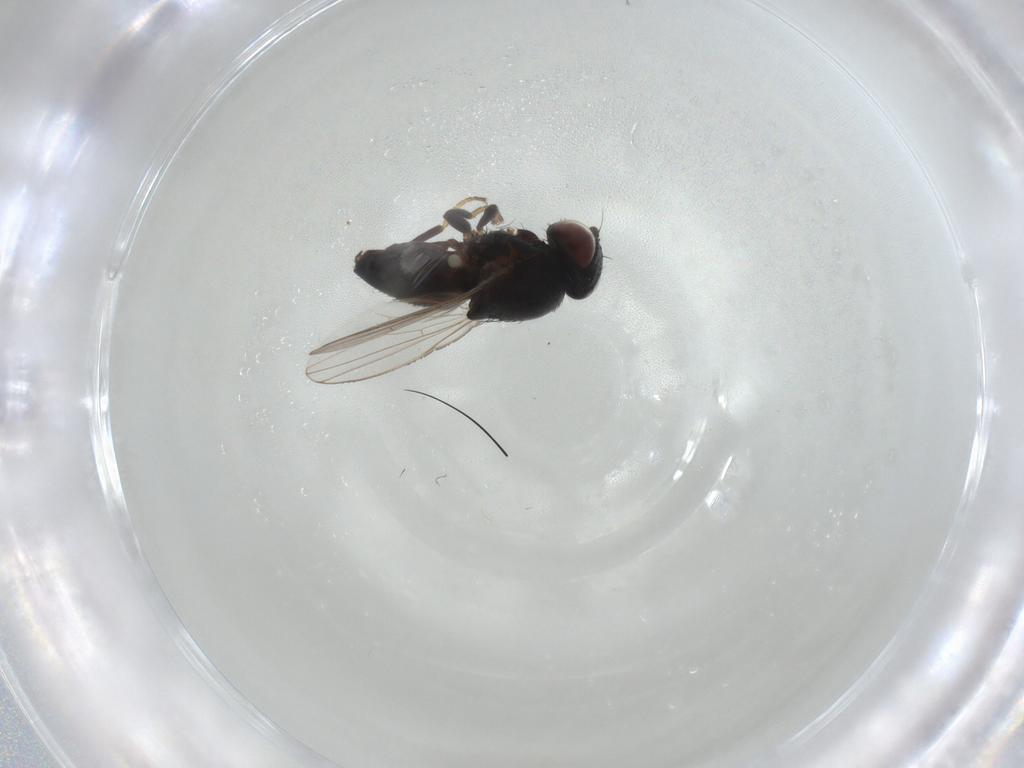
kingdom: Animalia
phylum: Arthropoda
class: Insecta
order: Diptera
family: Milichiidae
